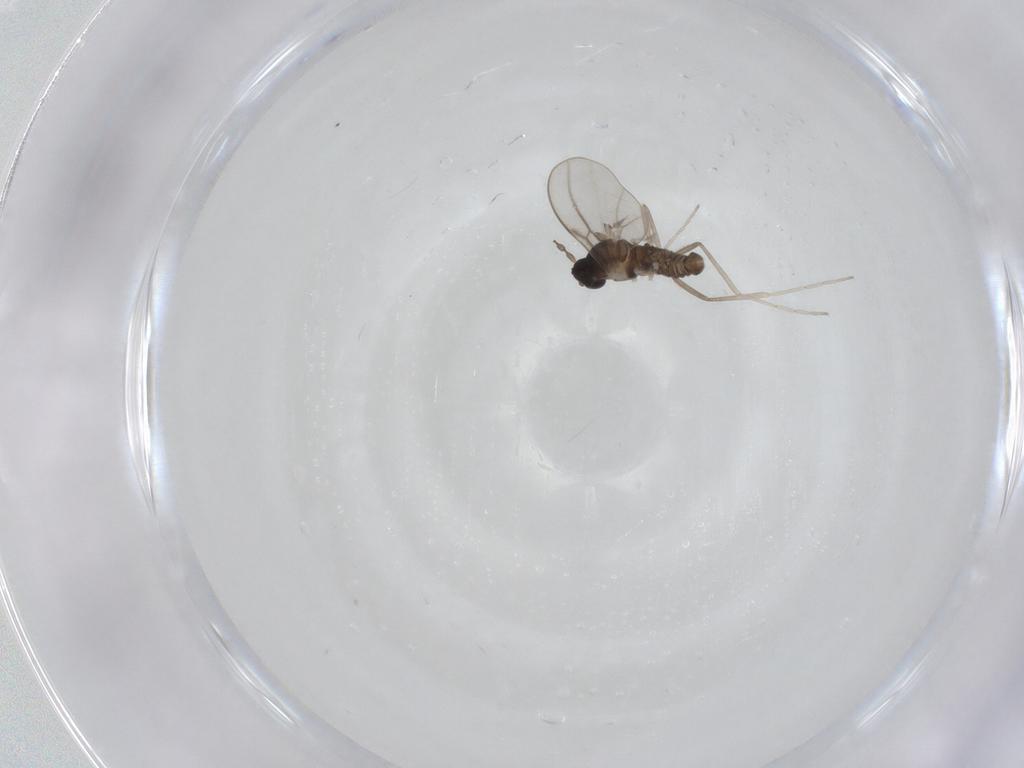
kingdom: Animalia
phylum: Arthropoda
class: Insecta
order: Diptera
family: Cecidomyiidae
